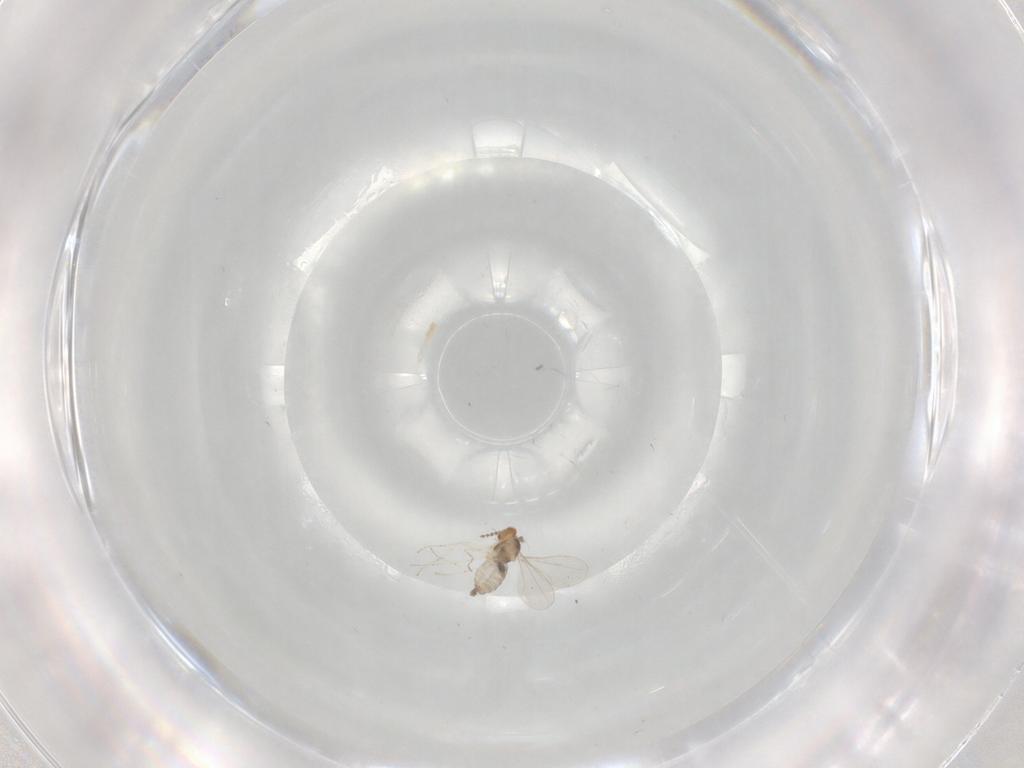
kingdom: Animalia
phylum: Arthropoda
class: Insecta
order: Diptera
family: Cecidomyiidae
